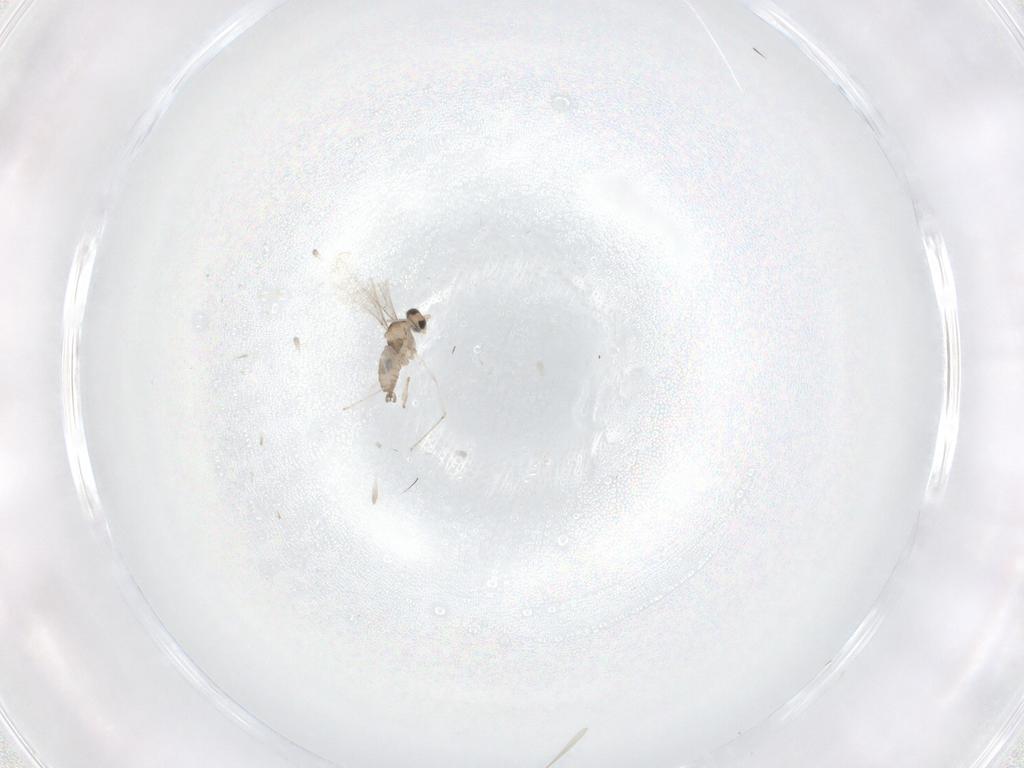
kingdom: Animalia
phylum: Arthropoda
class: Insecta
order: Diptera
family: Cecidomyiidae
